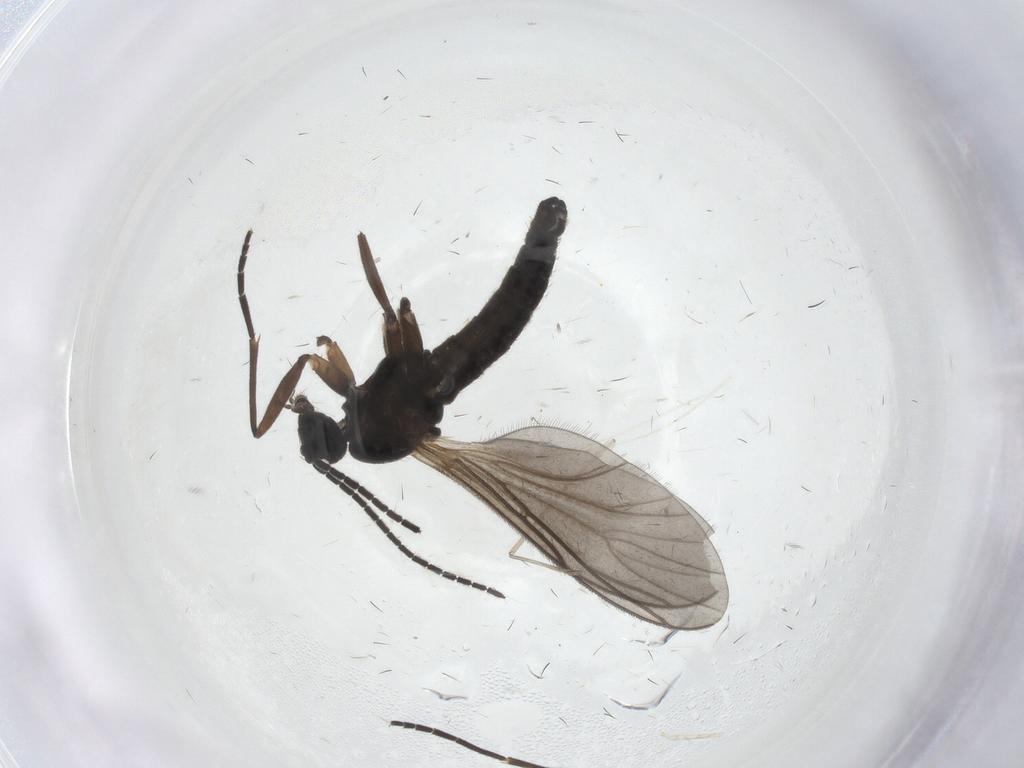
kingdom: Animalia
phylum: Arthropoda
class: Insecta
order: Diptera
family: Sciaridae
